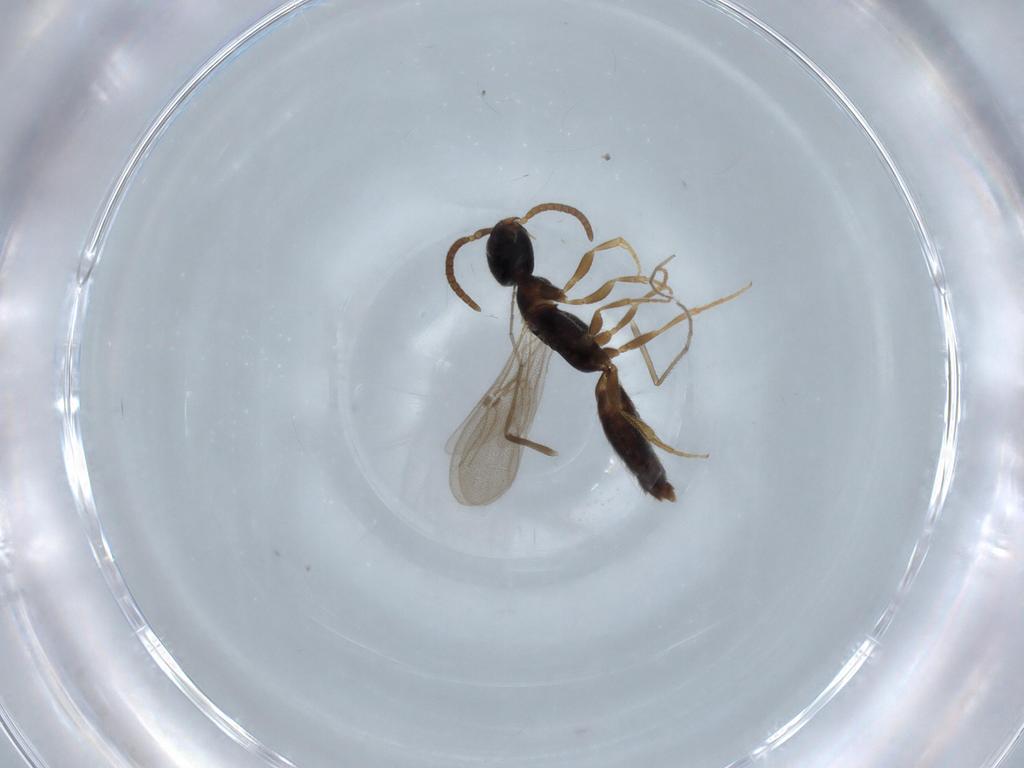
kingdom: Animalia
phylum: Arthropoda
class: Insecta
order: Hymenoptera
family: Bethylidae
